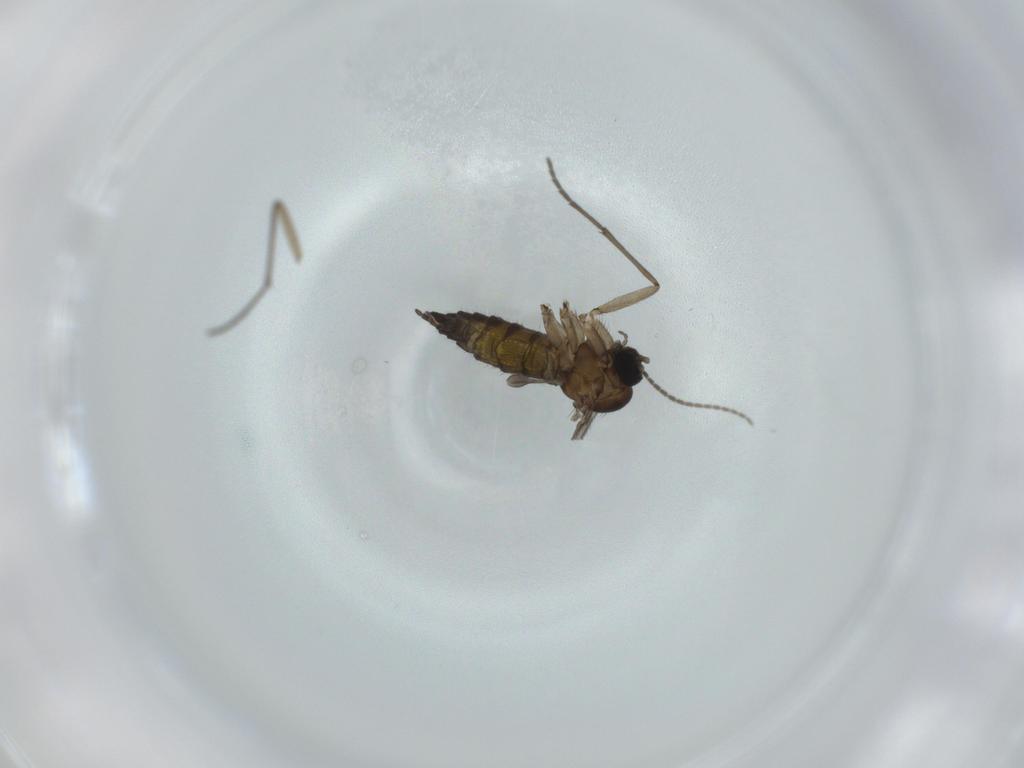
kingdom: Animalia
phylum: Arthropoda
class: Insecta
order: Diptera
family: Sciaridae
